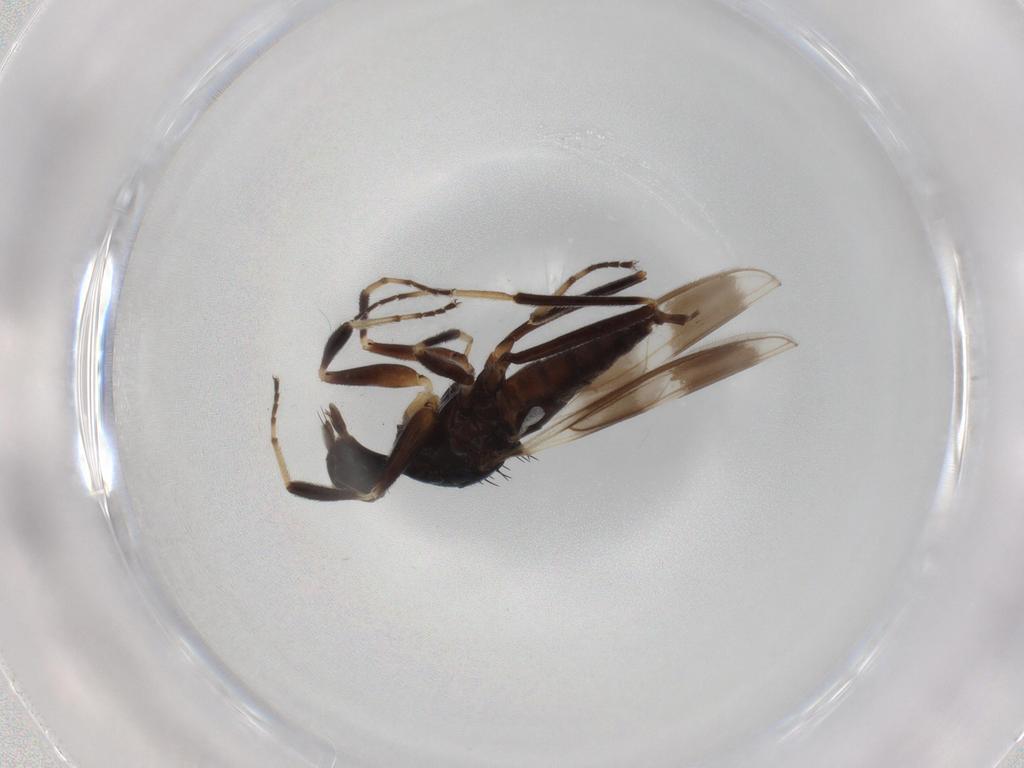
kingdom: Animalia
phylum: Arthropoda
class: Insecta
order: Diptera
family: Hybotidae
